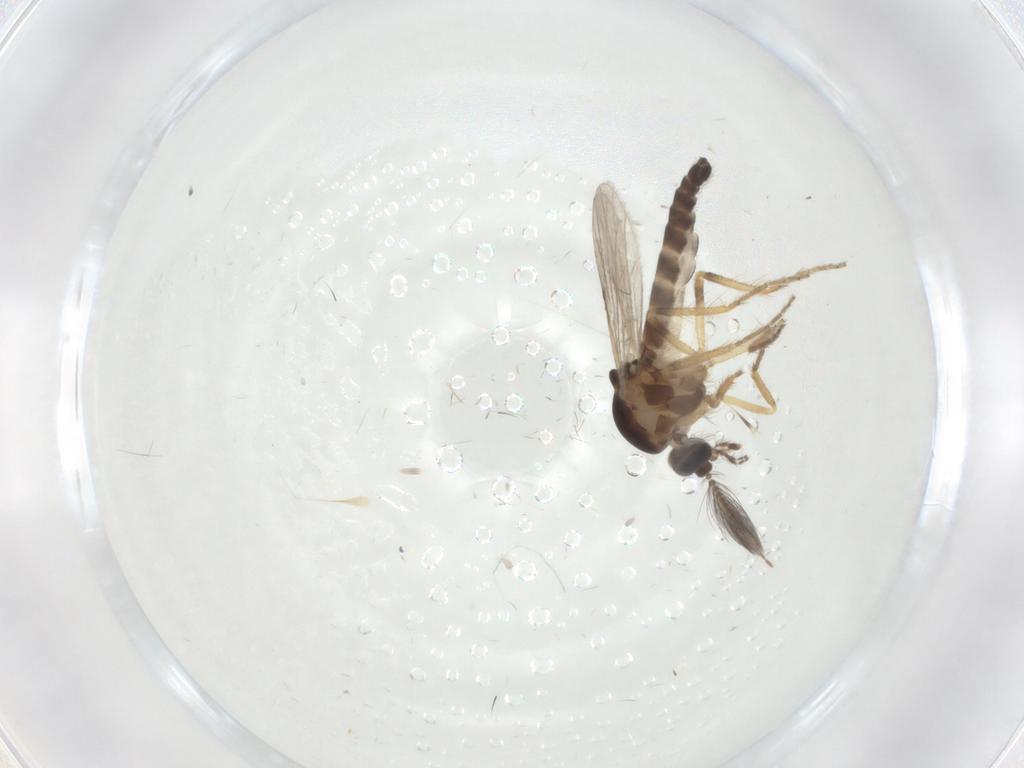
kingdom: Animalia
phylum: Arthropoda
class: Insecta
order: Diptera
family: Ceratopogonidae
